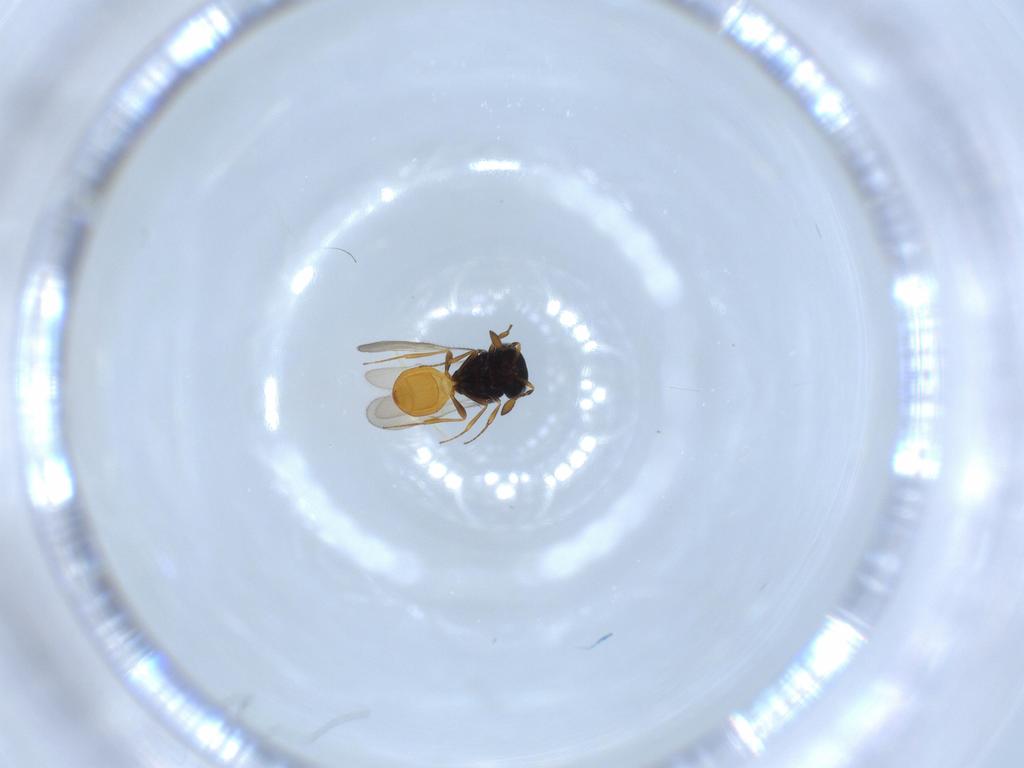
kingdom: Animalia
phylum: Arthropoda
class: Insecta
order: Hymenoptera
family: Scelionidae
